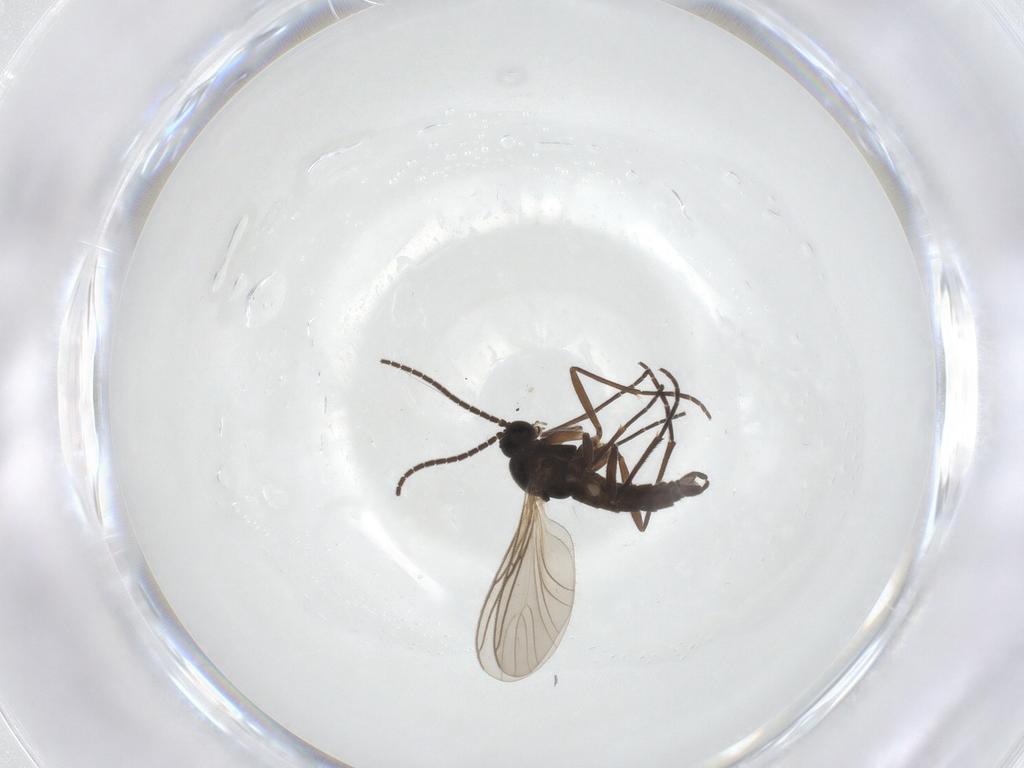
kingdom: Animalia
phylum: Arthropoda
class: Insecta
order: Diptera
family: Sciaridae
